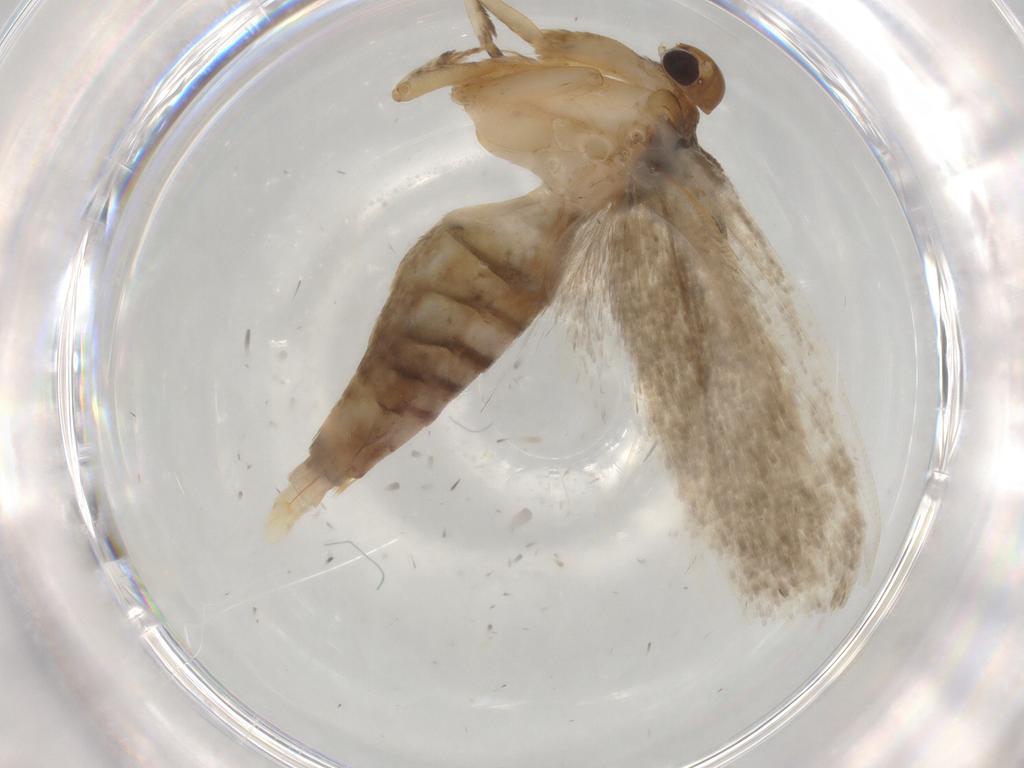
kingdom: Animalia
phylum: Arthropoda
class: Insecta
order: Lepidoptera
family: Gelechiidae
